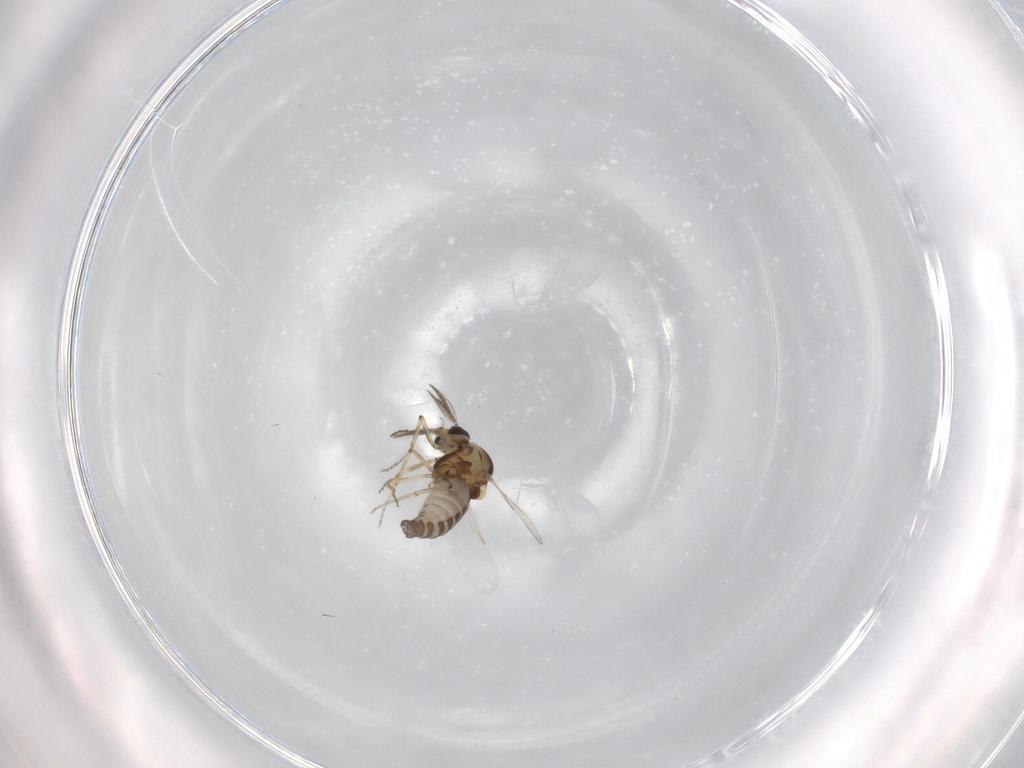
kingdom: Animalia
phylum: Arthropoda
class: Insecta
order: Diptera
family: Ceratopogonidae
